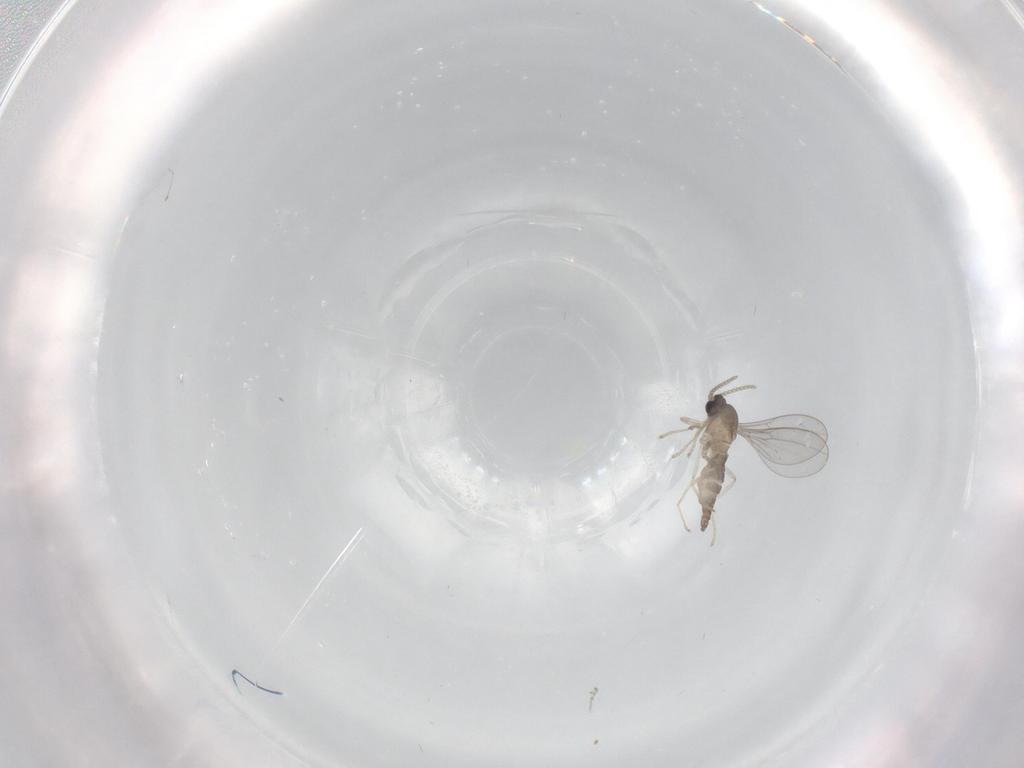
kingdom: Animalia
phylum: Arthropoda
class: Insecta
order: Diptera
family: Cecidomyiidae
